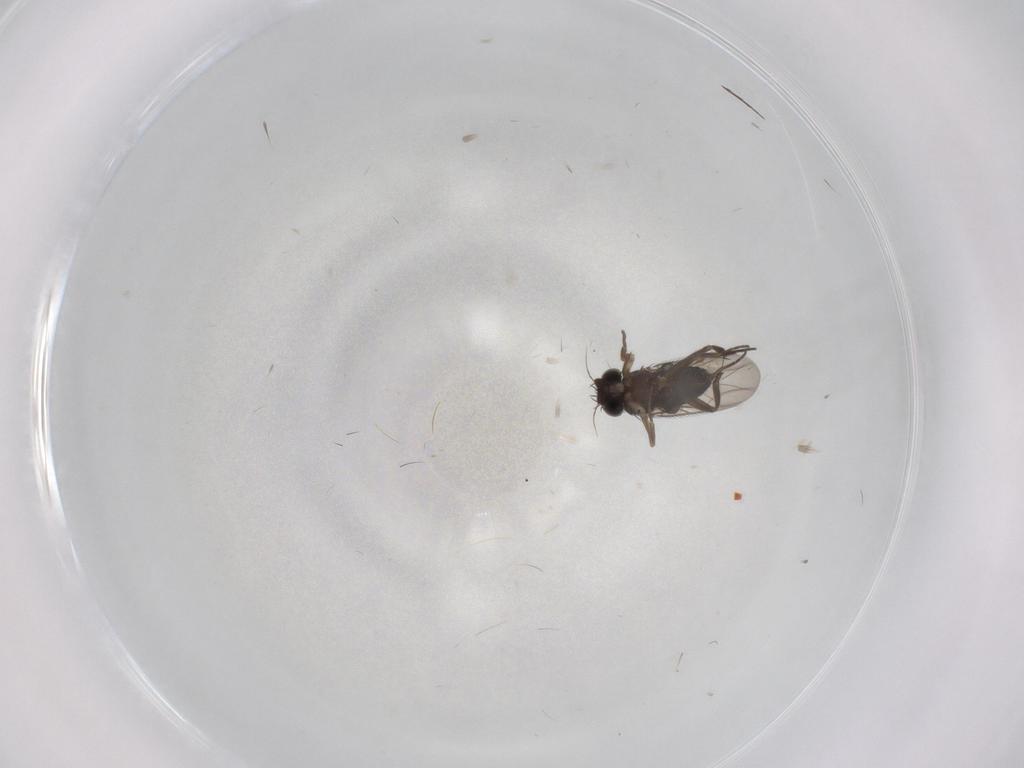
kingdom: Animalia
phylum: Arthropoda
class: Insecta
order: Diptera
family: Phoridae
